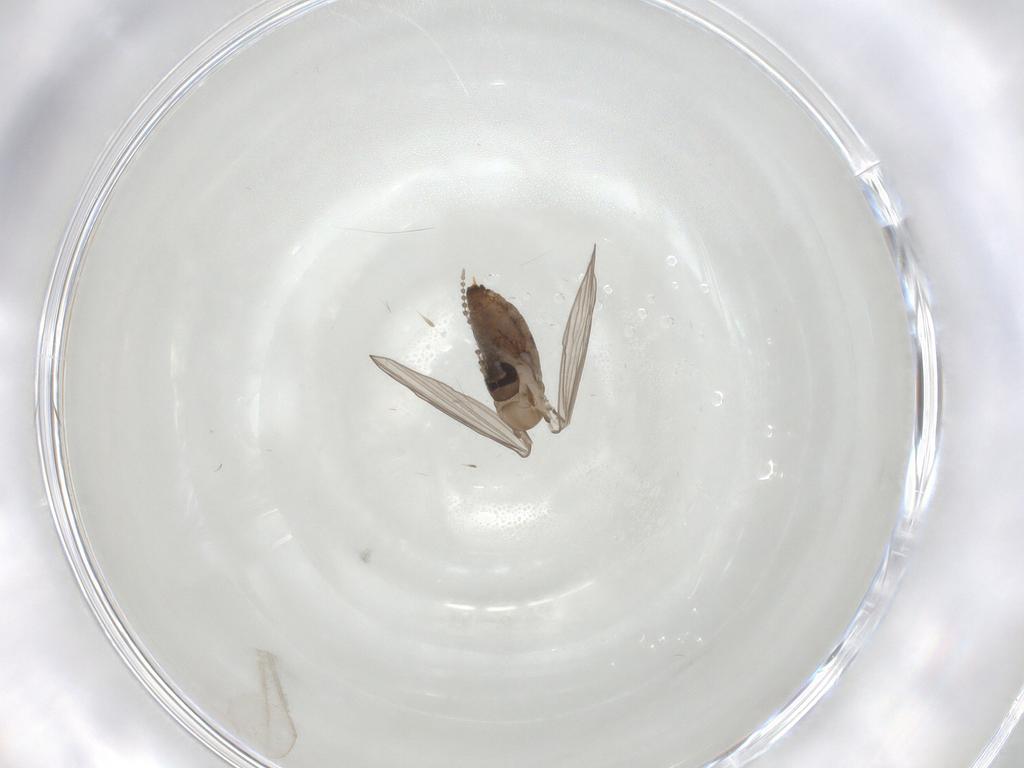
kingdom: Animalia
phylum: Arthropoda
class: Insecta
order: Diptera
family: Psychodidae
